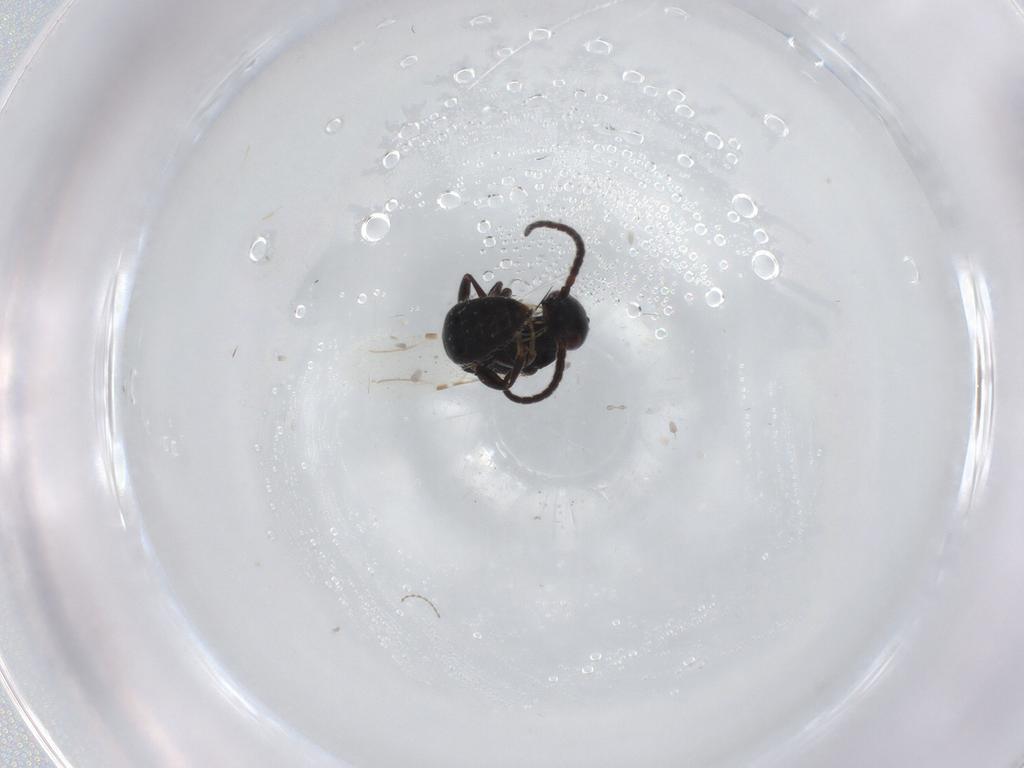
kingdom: Animalia
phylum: Arthropoda
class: Insecta
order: Hymenoptera
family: Bethylidae
